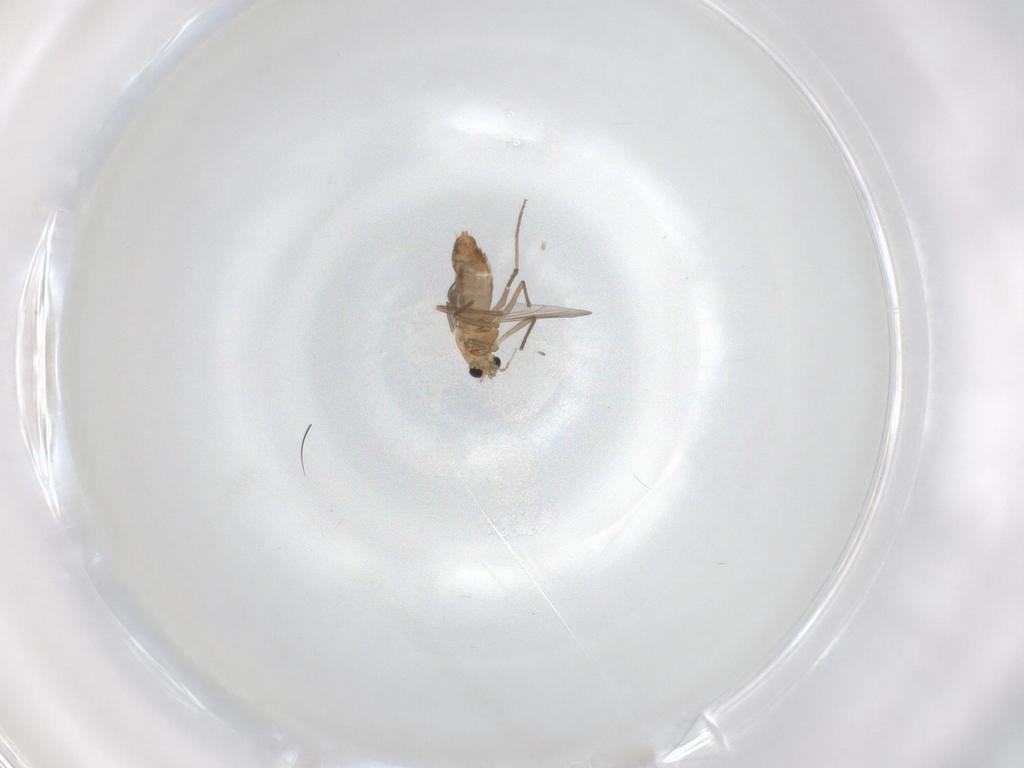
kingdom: Animalia
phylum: Arthropoda
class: Insecta
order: Diptera
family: Chironomidae
